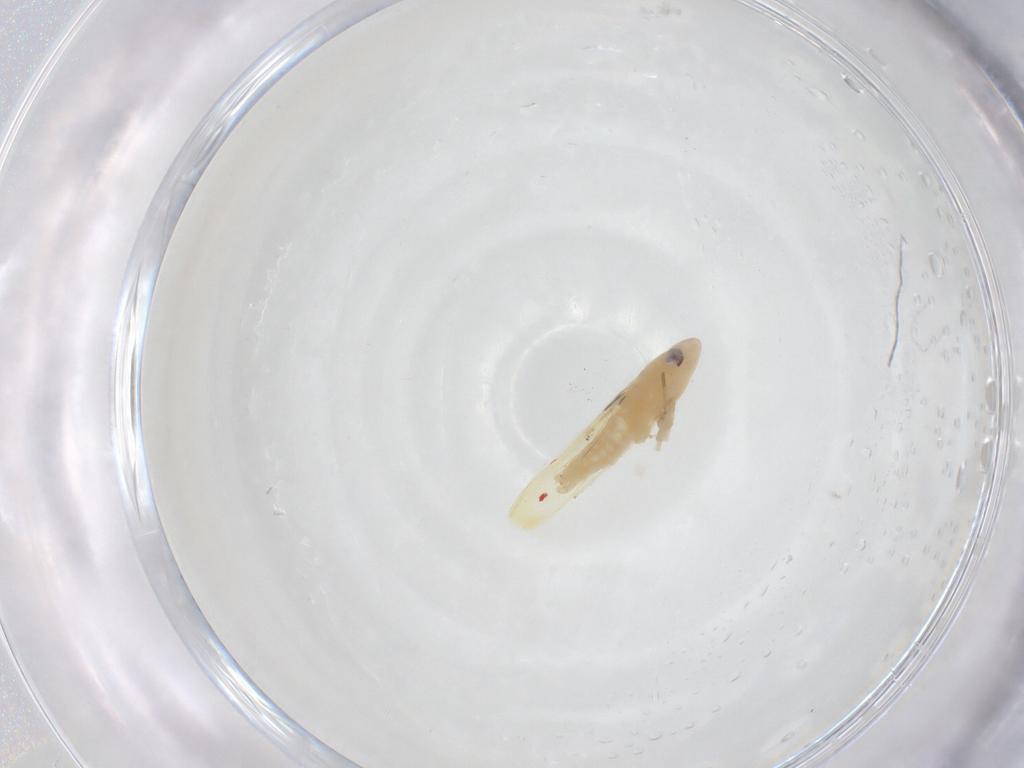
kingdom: Animalia
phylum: Arthropoda
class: Insecta
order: Hemiptera
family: Cicadellidae
